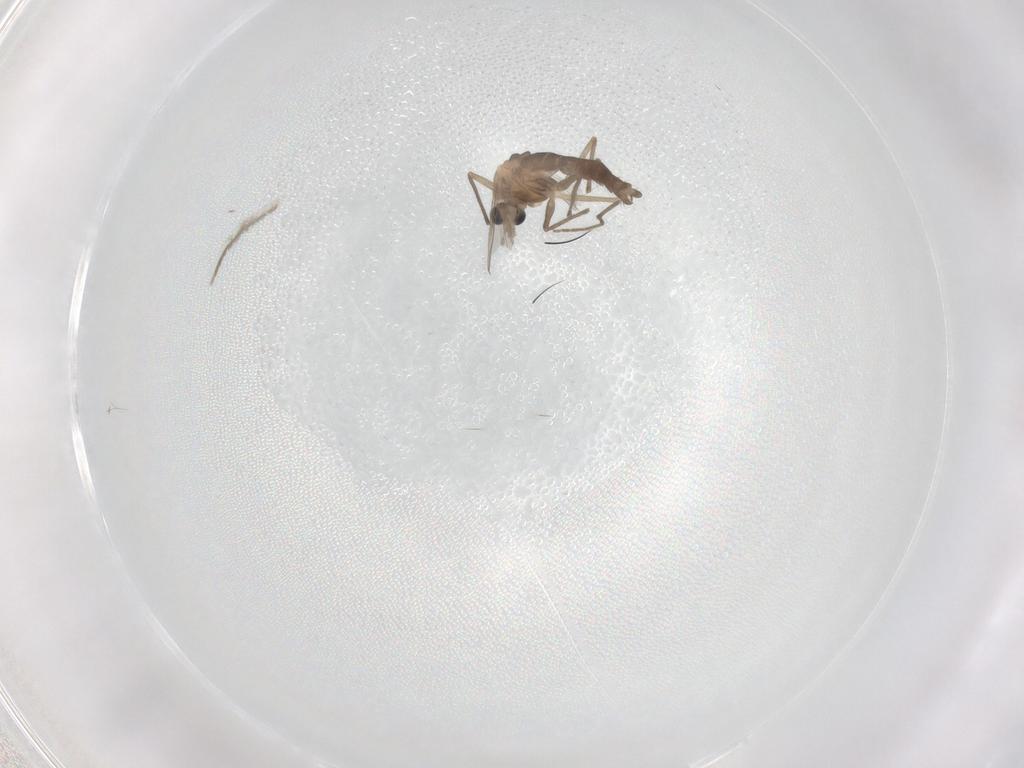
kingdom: Animalia
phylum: Arthropoda
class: Insecta
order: Diptera
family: Chironomidae
